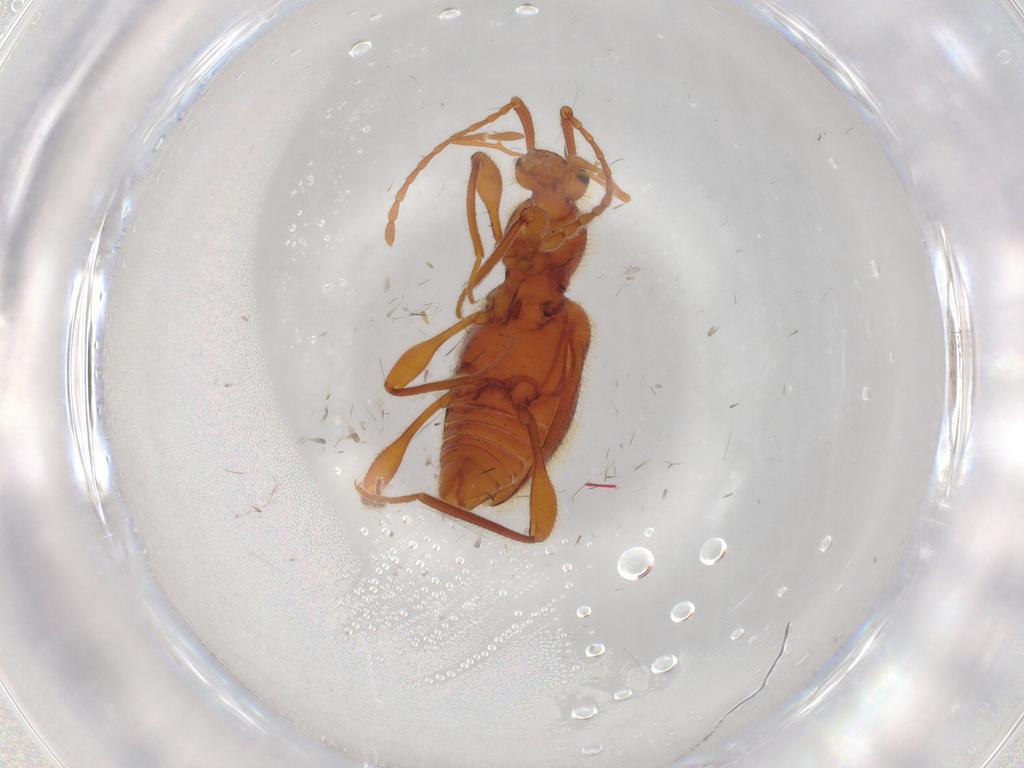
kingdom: Animalia
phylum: Arthropoda
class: Insecta
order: Coleoptera
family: Staphylinidae
